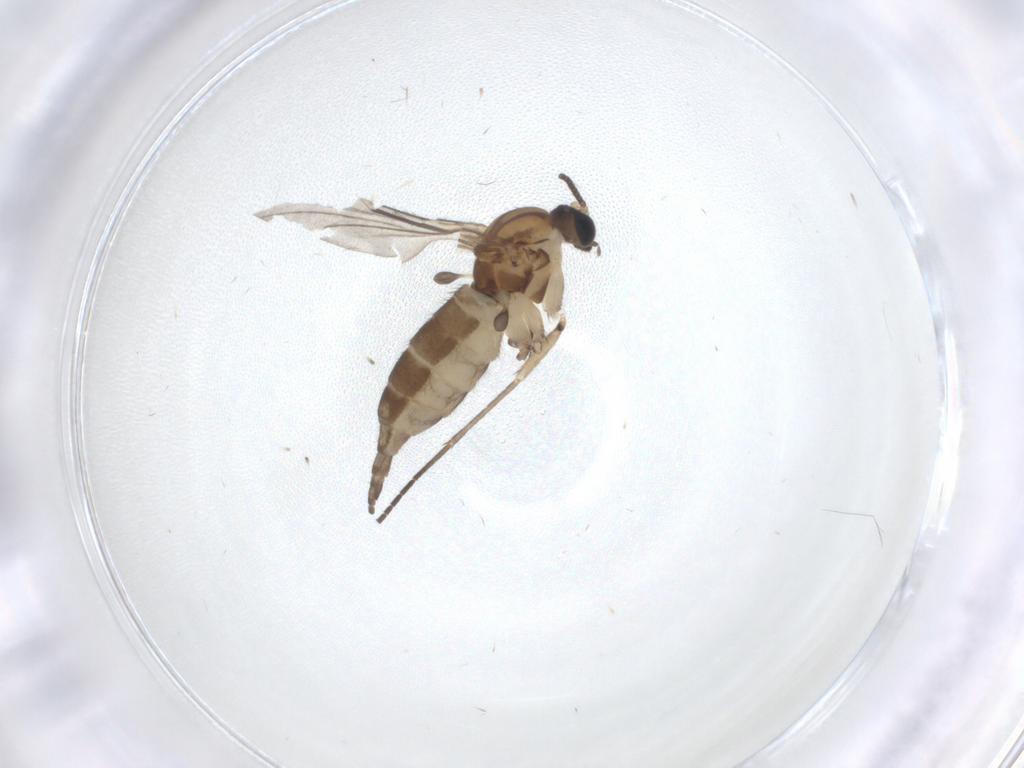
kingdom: Animalia
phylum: Arthropoda
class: Insecta
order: Diptera
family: Sciaridae
